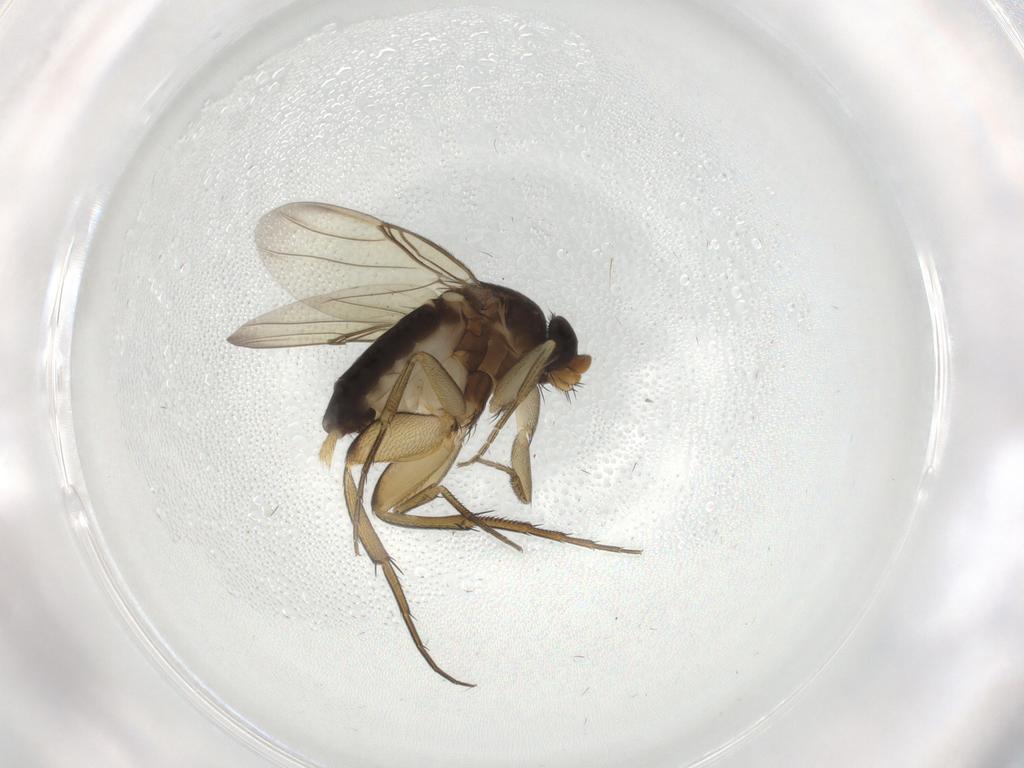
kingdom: Animalia
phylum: Arthropoda
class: Insecta
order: Diptera
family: Phoridae
